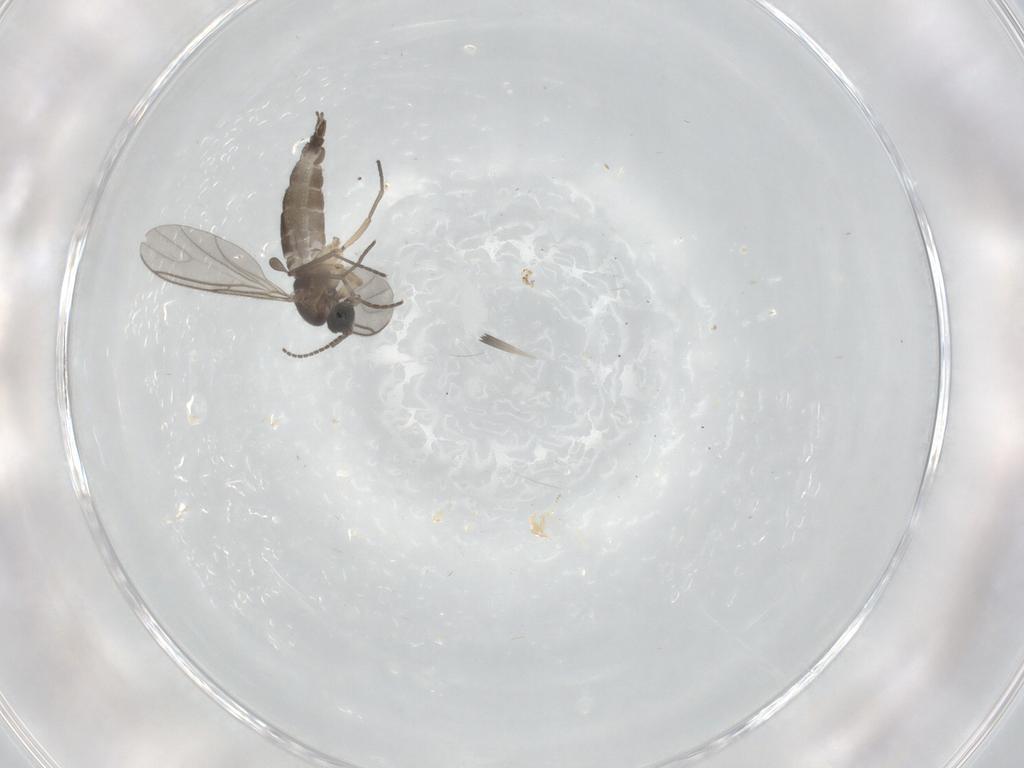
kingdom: Animalia
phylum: Arthropoda
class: Insecta
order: Diptera
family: Sciaridae
